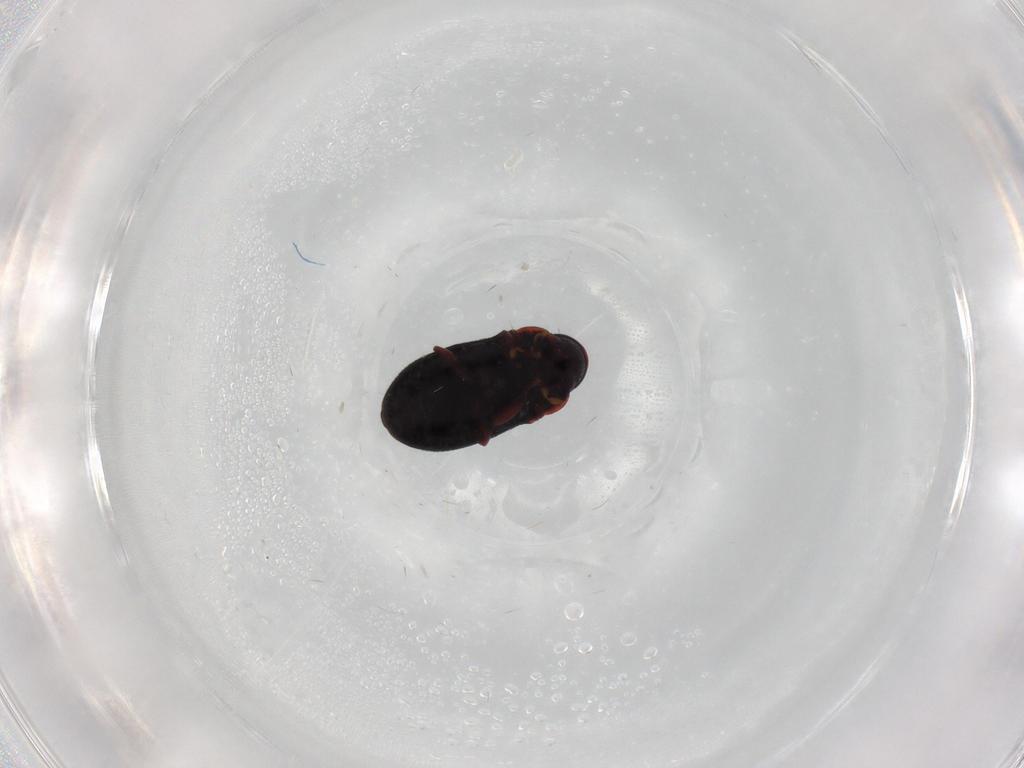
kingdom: Animalia
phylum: Arthropoda
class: Insecta
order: Coleoptera
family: Ptinidae
